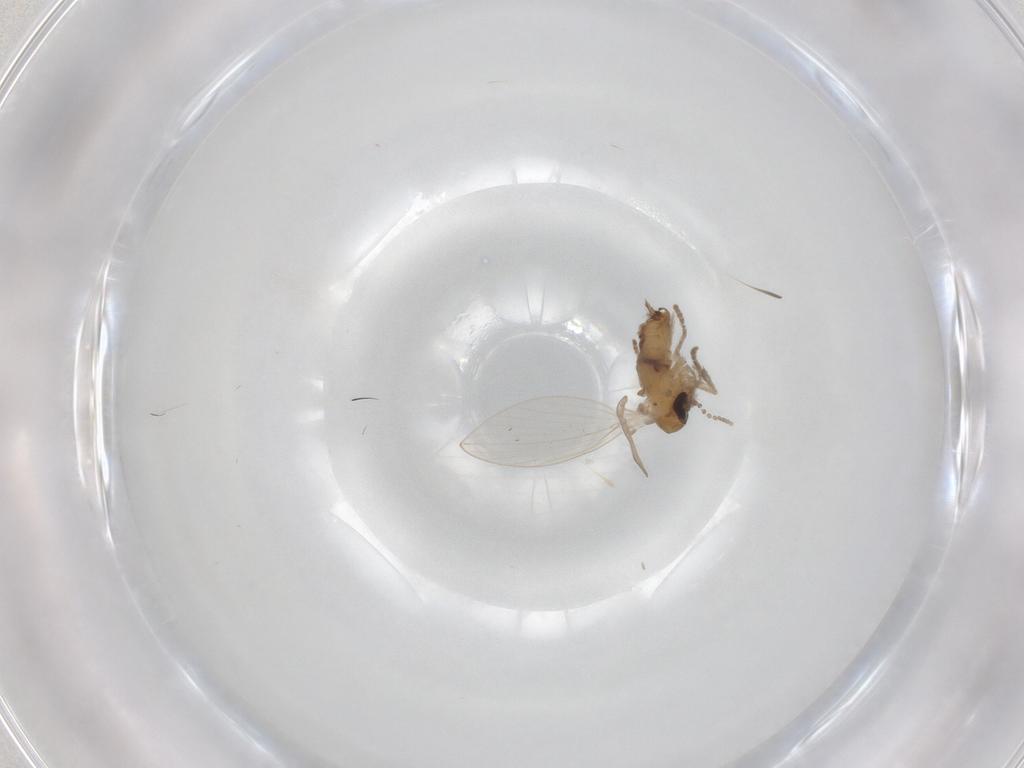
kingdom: Animalia
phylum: Arthropoda
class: Insecta
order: Diptera
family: Psychodidae
